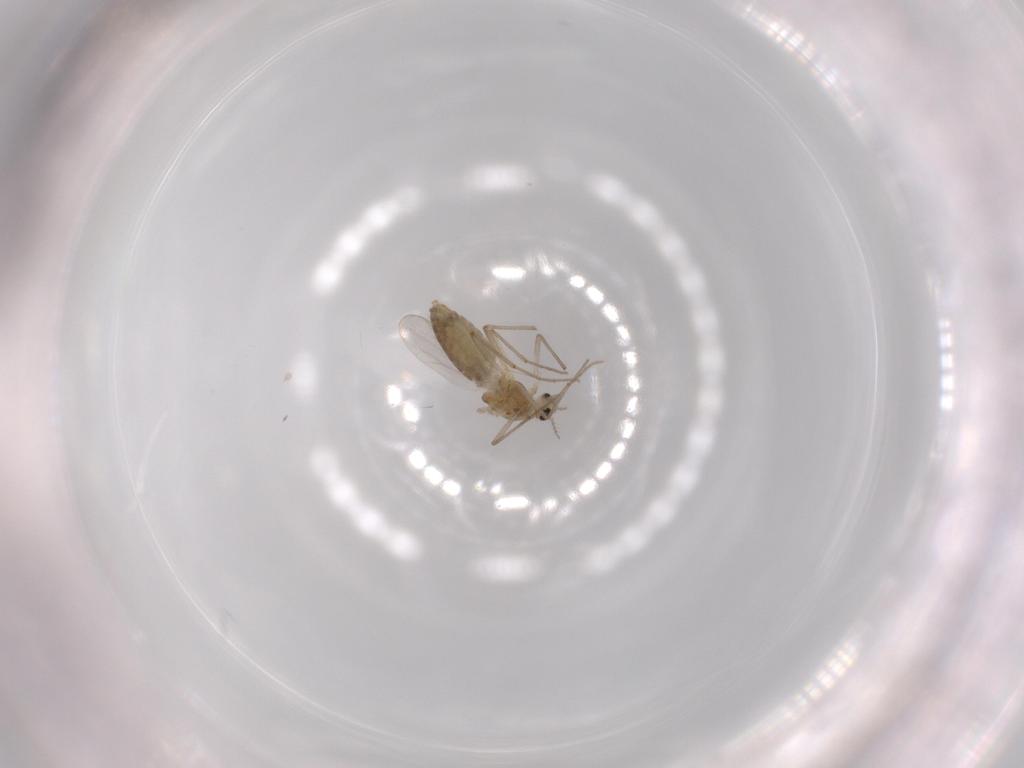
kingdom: Animalia
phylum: Arthropoda
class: Insecta
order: Diptera
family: Chironomidae
